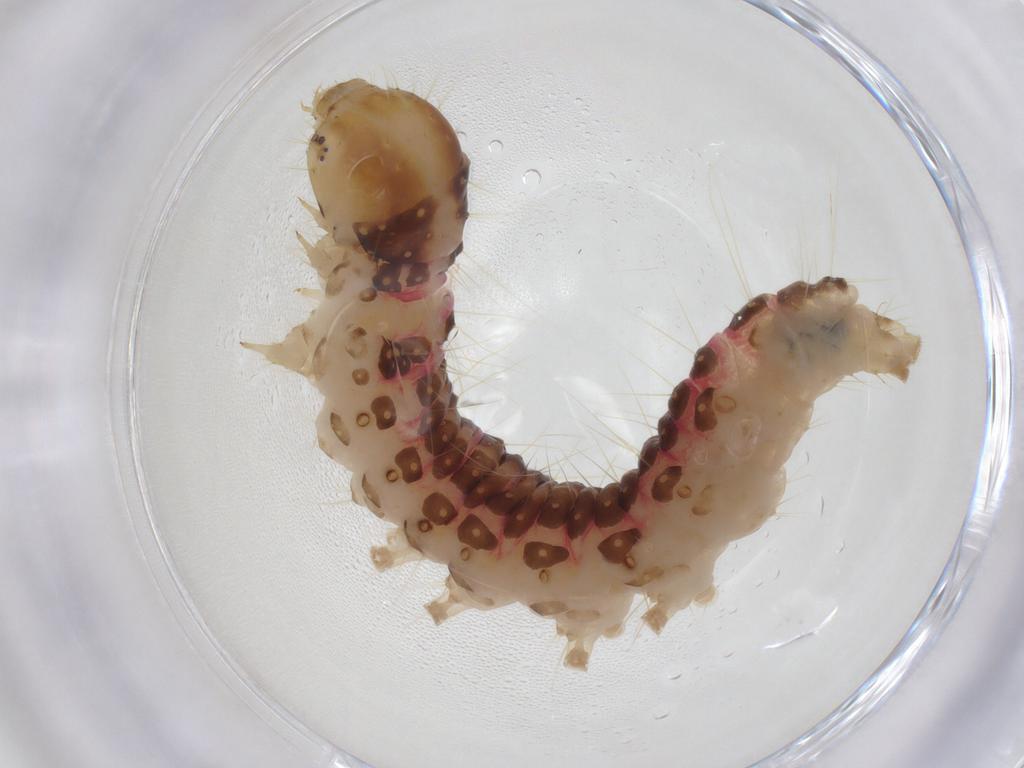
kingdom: Animalia
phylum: Arthropoda
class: Insecta
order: Lepidoptera
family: Crambidae
